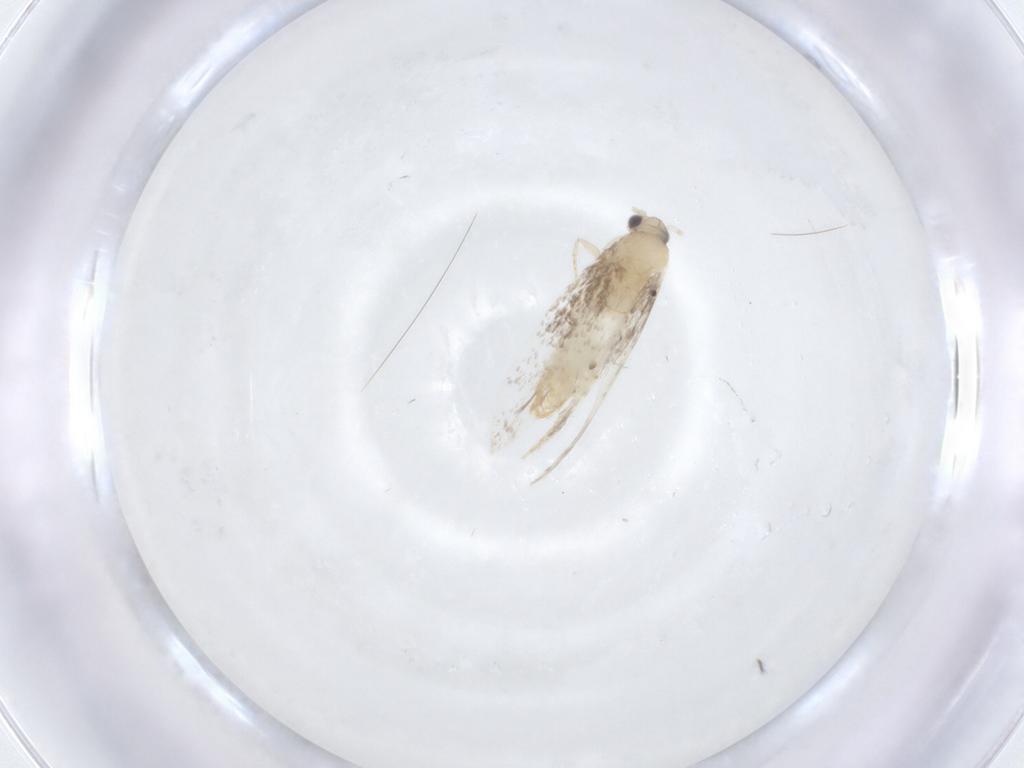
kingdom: Animalia
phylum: Arthropoda
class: Insecta
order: Lepidoptera
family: Lycaenidae
